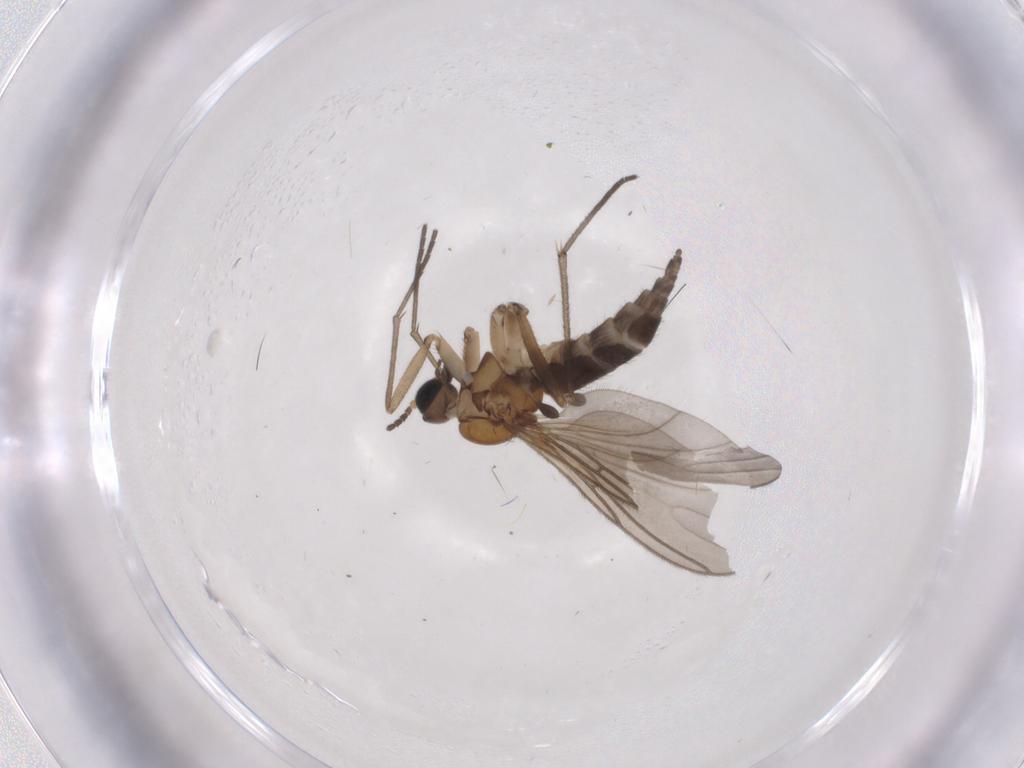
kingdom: Animalia
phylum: Arthropoda
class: Insecta
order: Diptera
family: Sciaridae
